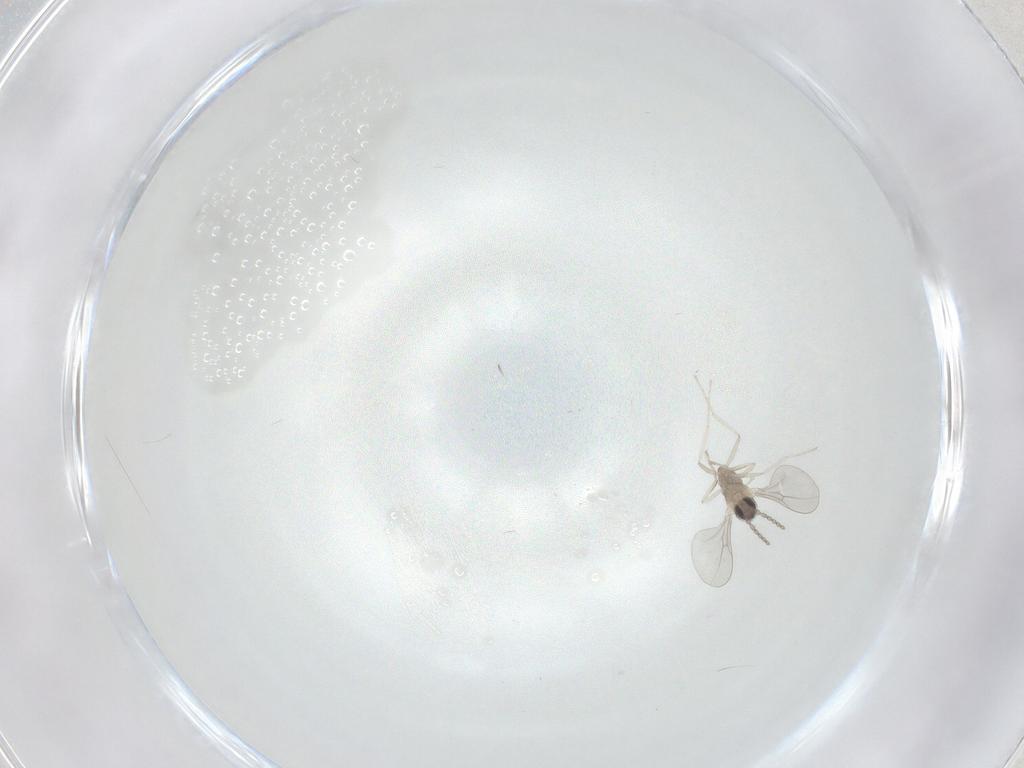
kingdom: Animalia
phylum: Arthropoda
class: Insecta
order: Diptera
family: Cecidomyiidae
